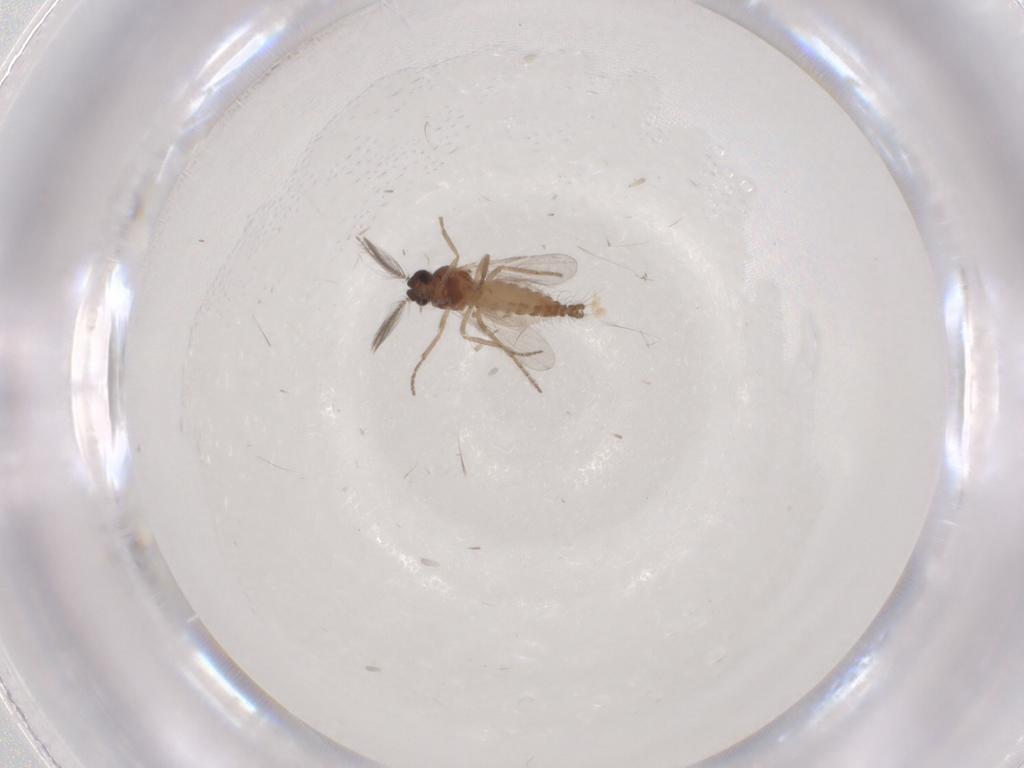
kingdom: Animalia
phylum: Arthropoda
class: Insecta
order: Diptera
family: Ceratopogonidae
